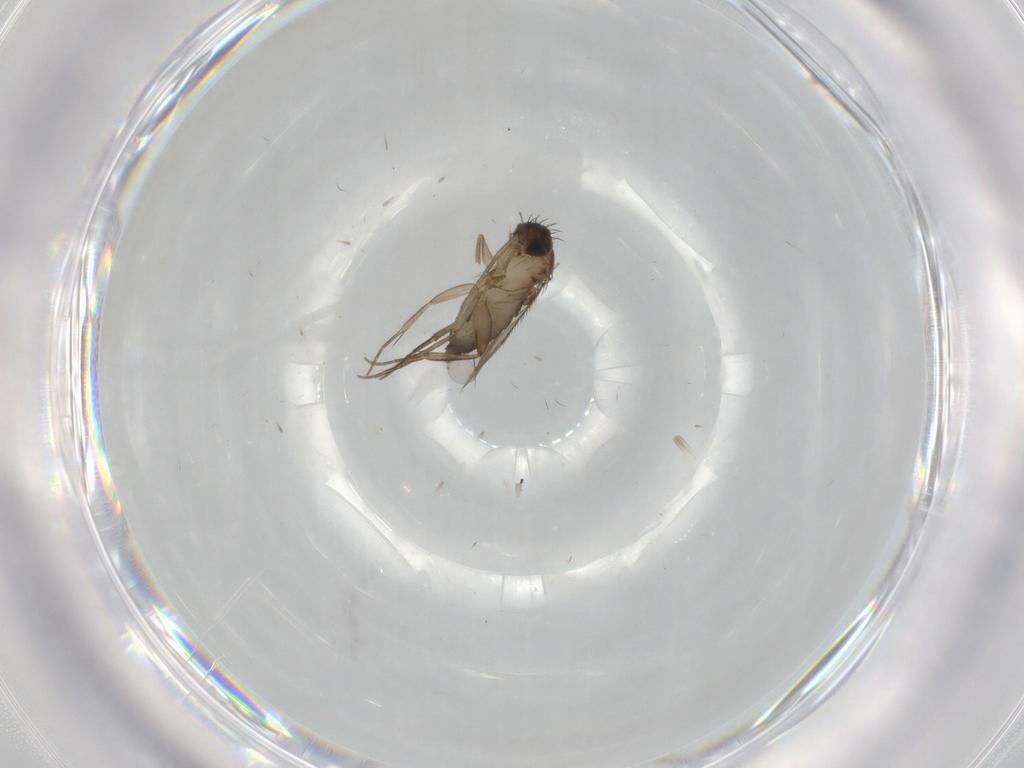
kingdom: Animalia
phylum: Arthropoda
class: Insecta
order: Diptera
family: Phoridae
